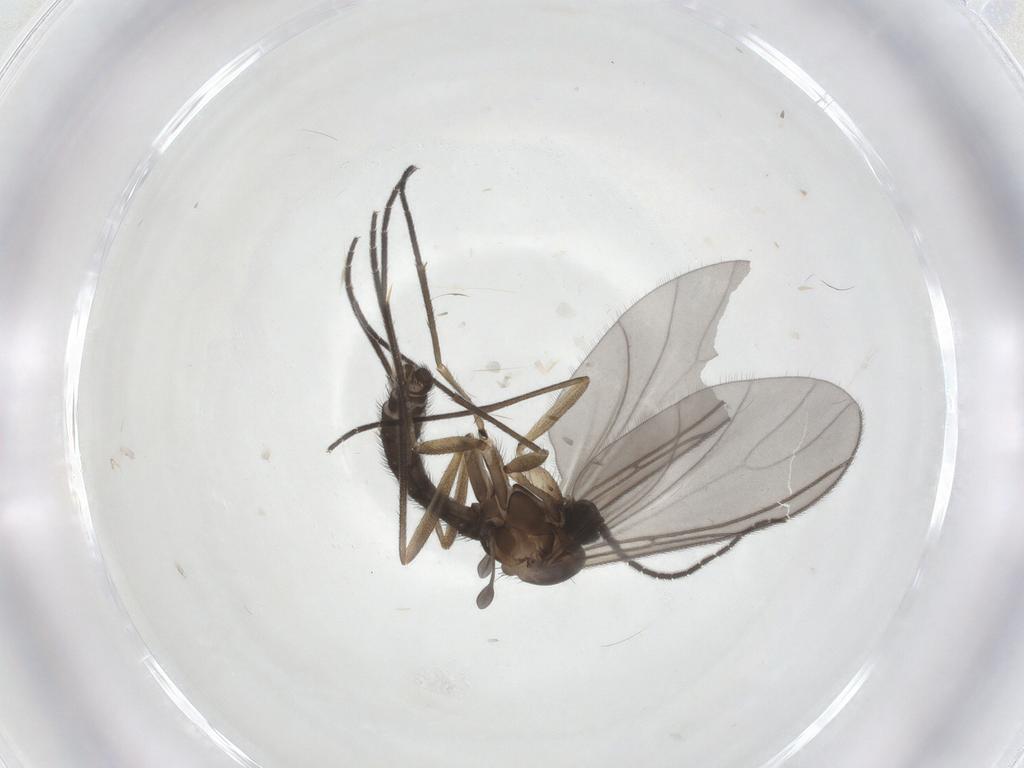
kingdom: Animalia
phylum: Arthropoda
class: Insecta
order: Diptera
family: Sciaridae
